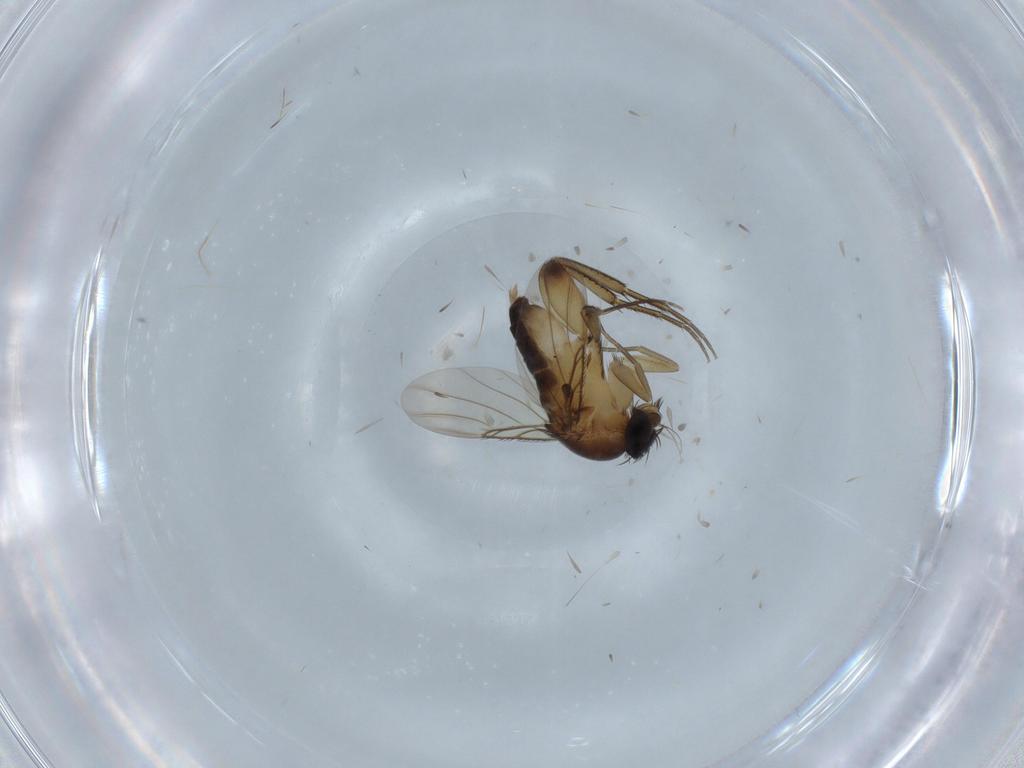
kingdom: Animalia
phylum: Arthropoda
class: Insecta
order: Diptera
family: Phoridae
